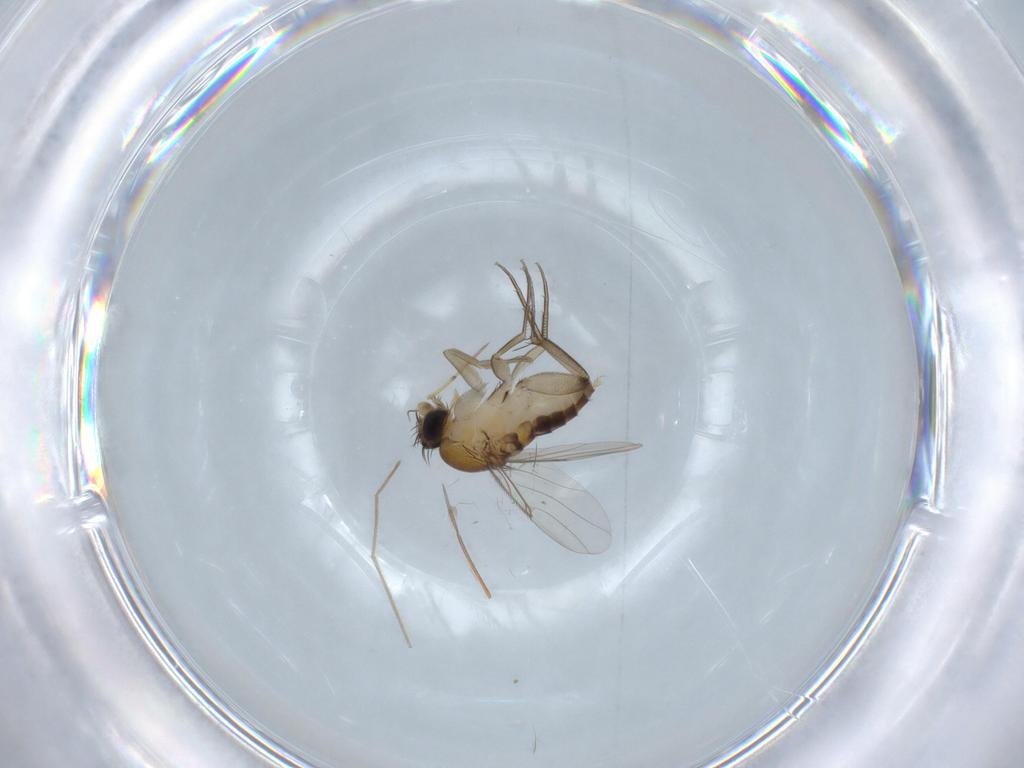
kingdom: Animalia
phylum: Arthropoda
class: Insecta
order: Diptera
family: Phoridae
